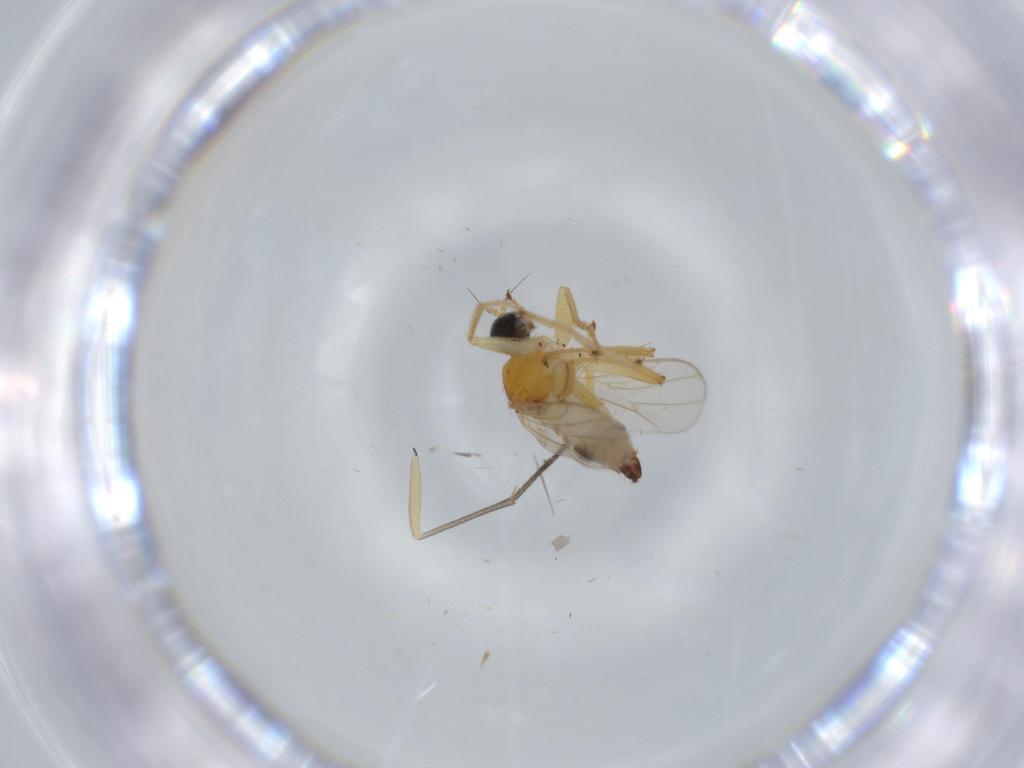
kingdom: Animalia
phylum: Arthropoda
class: Insecta
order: Diptera
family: Hybotidae
